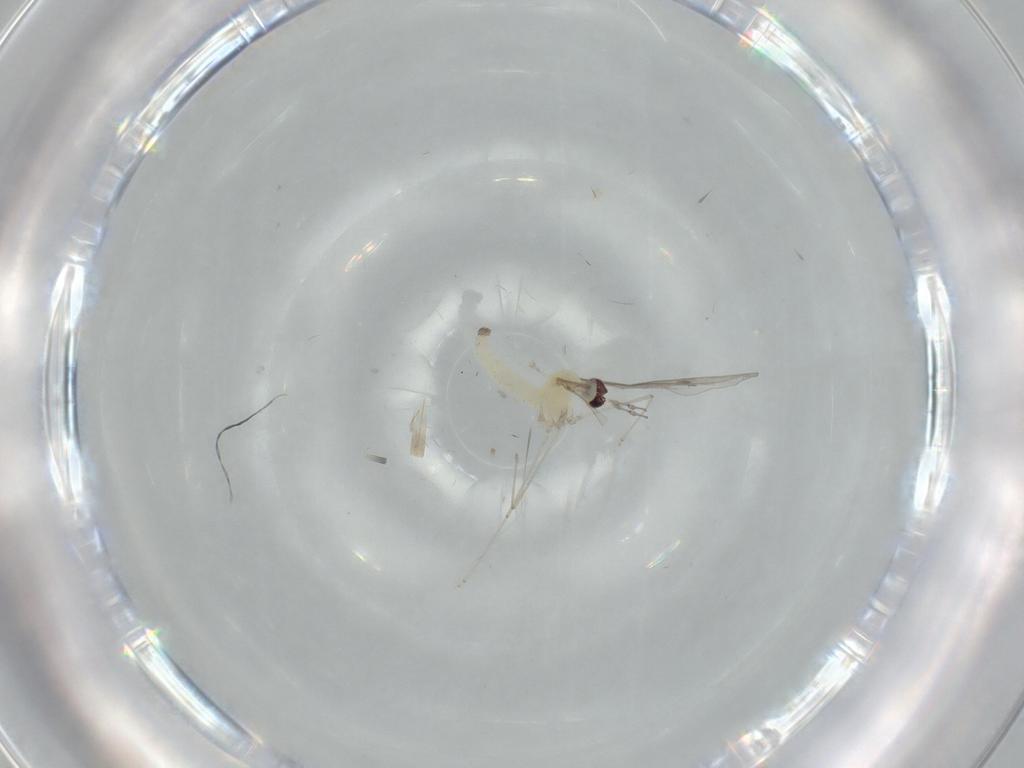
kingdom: Animalia
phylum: Arthropoda
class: Insecta
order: Diptera
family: Cecidomyiidae
